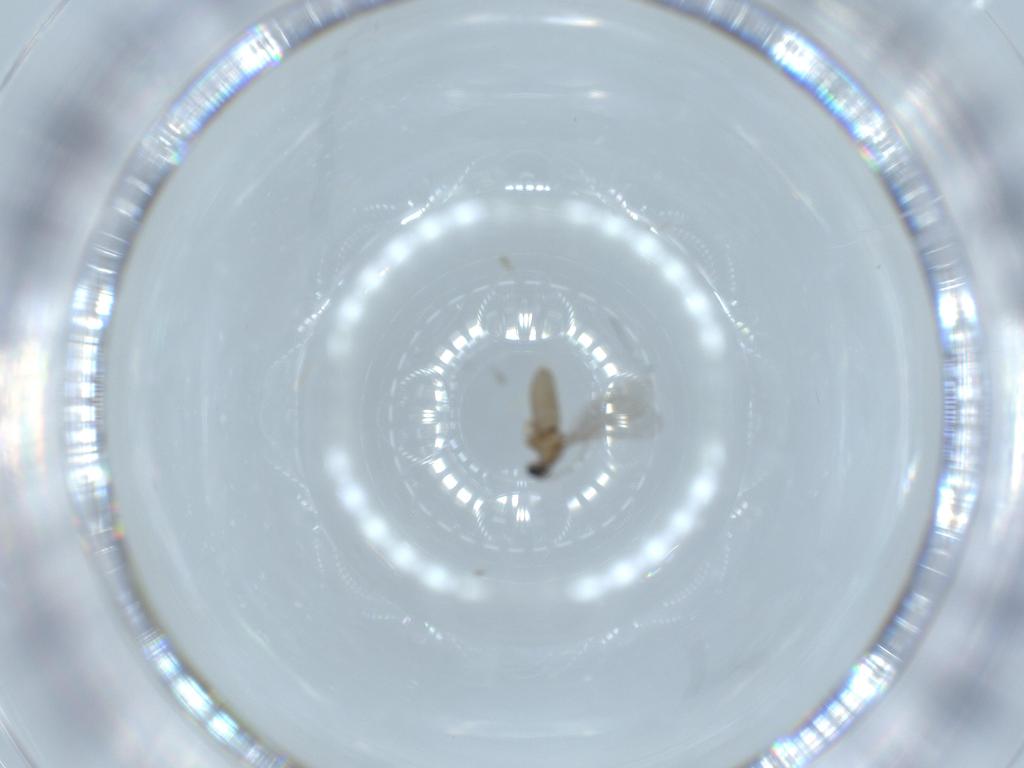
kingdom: Animalia
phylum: Arthropoda
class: Insecta
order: Diptera
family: Cecidomyiidae
